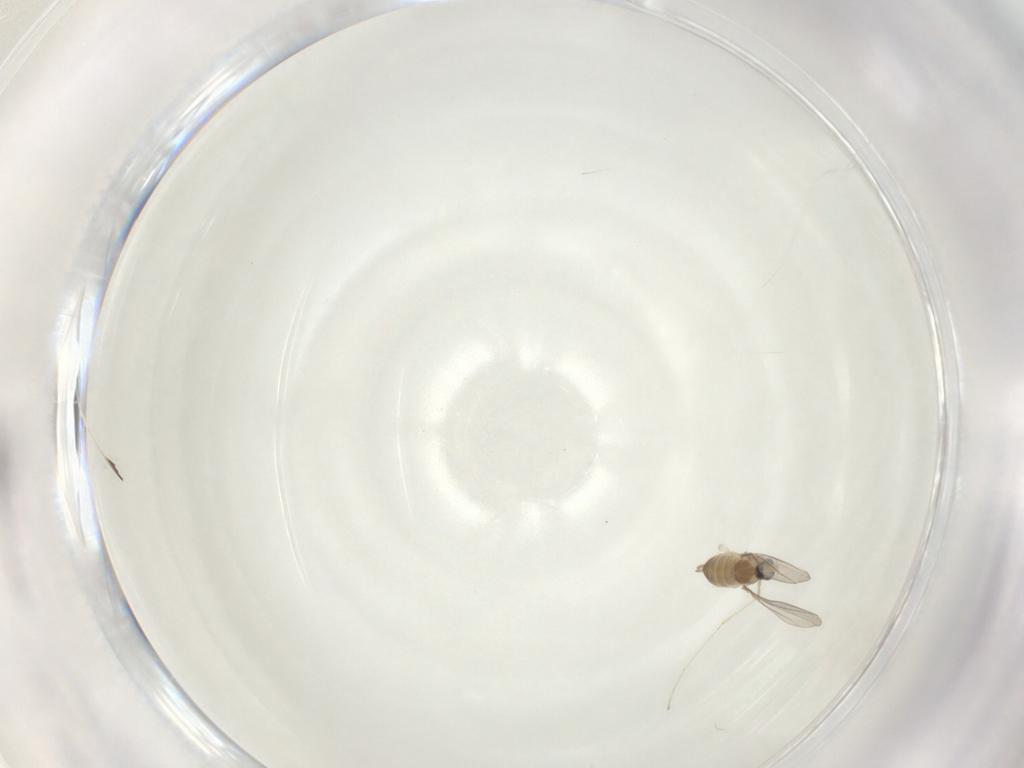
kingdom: Animalia
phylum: Arthropoda
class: Insecta
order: Diptera
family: Cecidomyiidae
